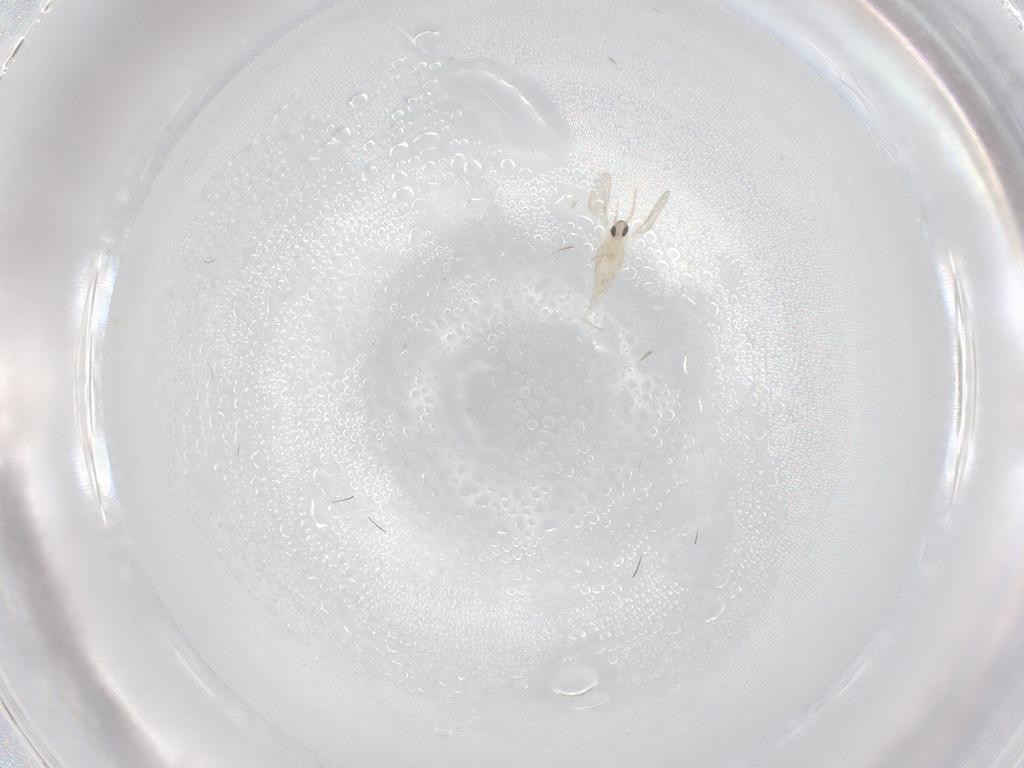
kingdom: Animalia
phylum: Arthropoda
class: Insecta
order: Diptera
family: Cecidomyiidae
